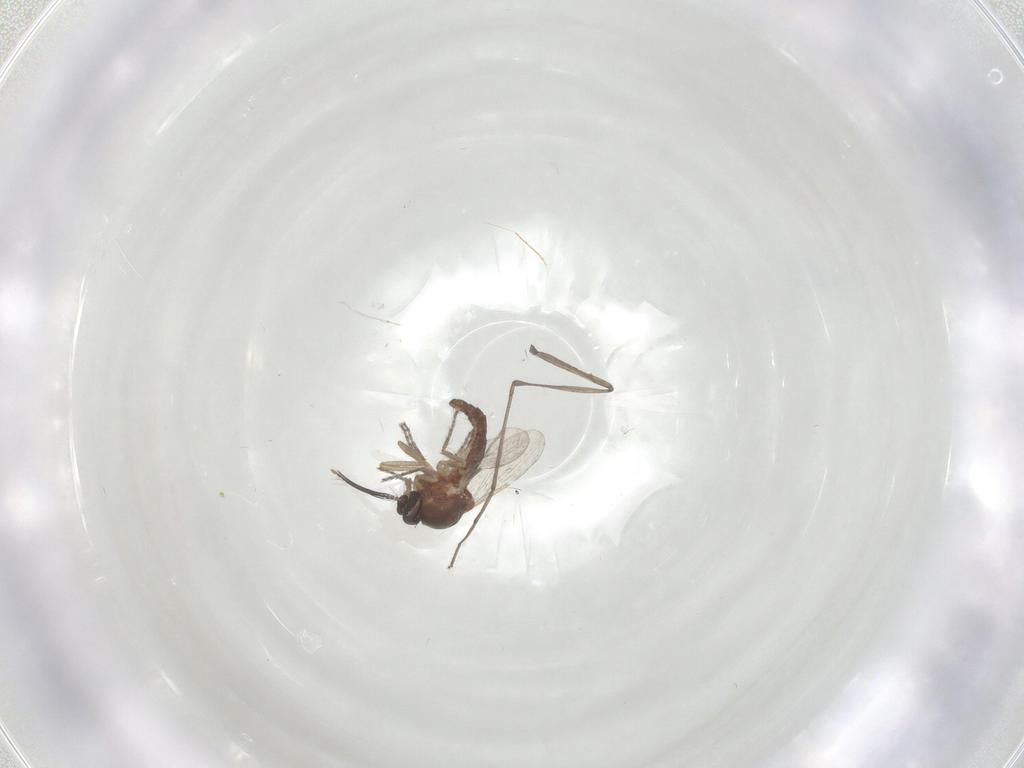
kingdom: Animalia
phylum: Arthropoda
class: Insecta
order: Diptera
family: Ceratopogonidae
